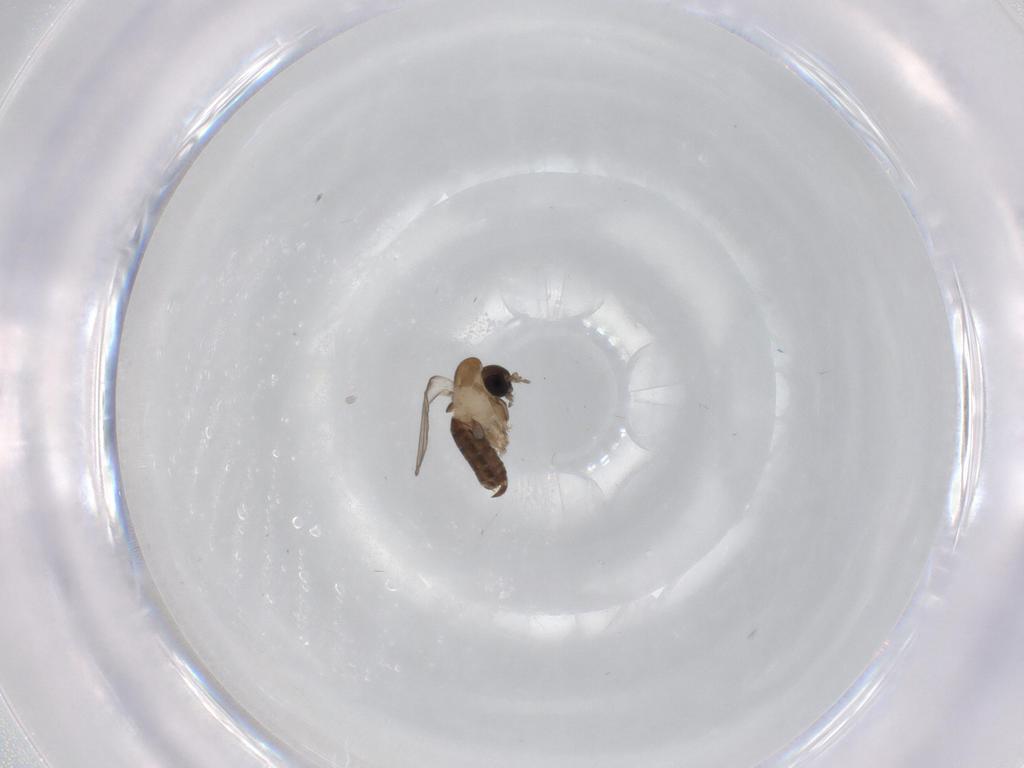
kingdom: Animalia
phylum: Arthropoda
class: Insecta
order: Diptera
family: Psychodidae
